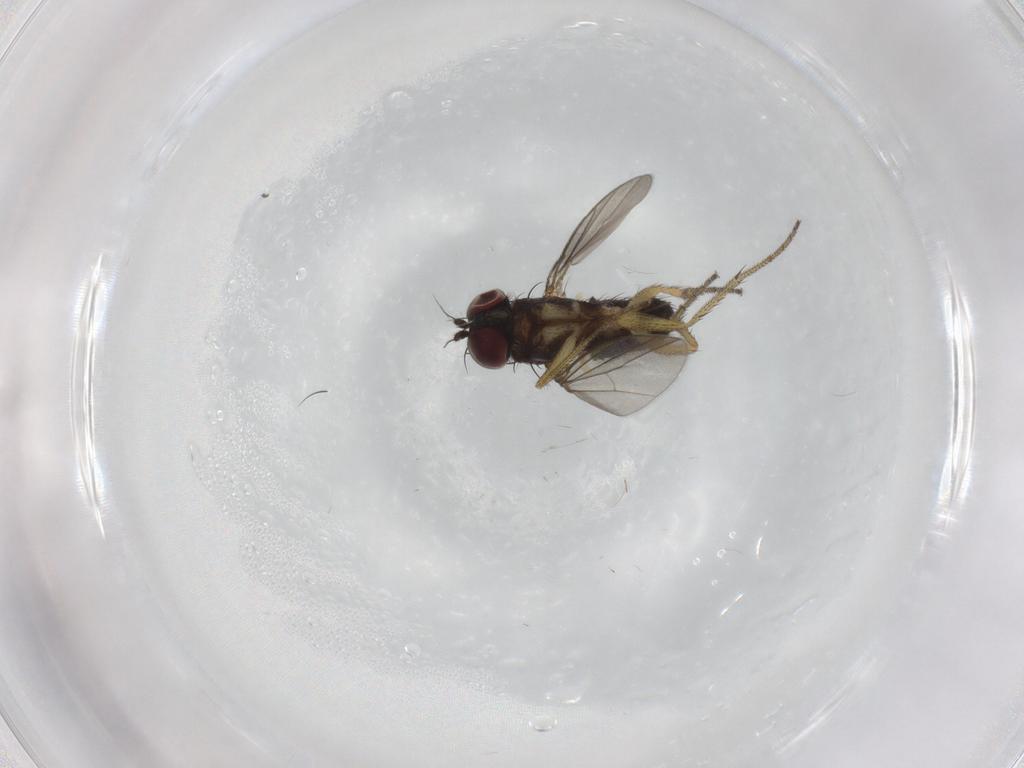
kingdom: Animalia
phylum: Arthropoda
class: Insecta
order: Diptera
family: Dolichopodidae
